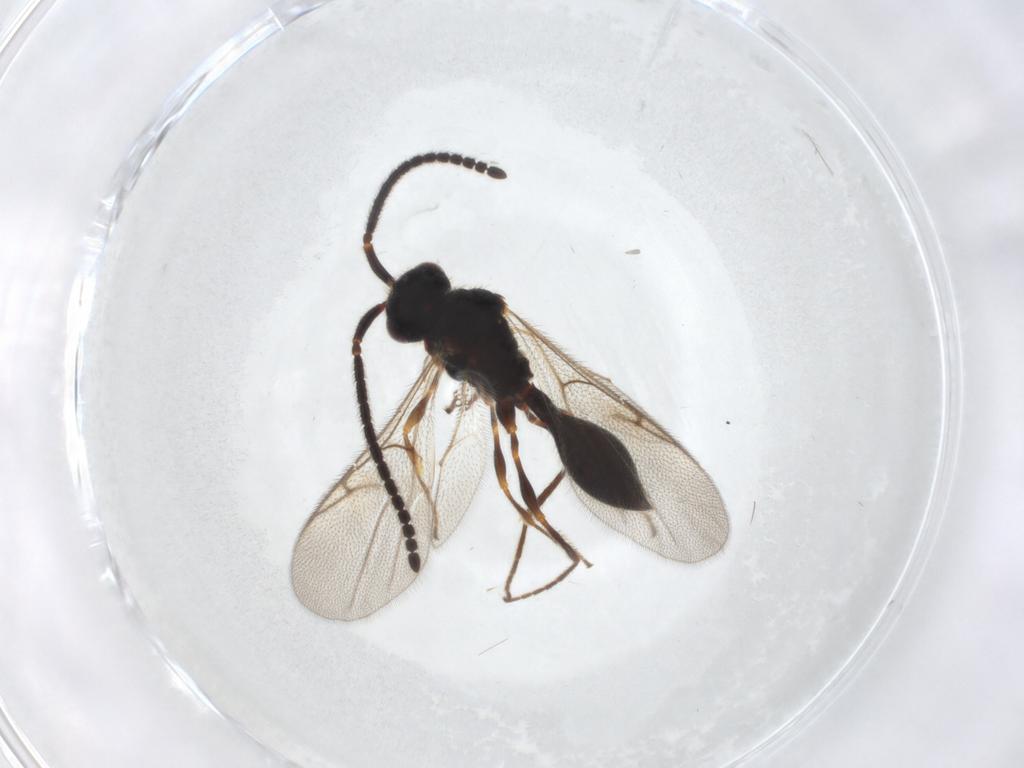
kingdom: Animalia
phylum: Arthropoda
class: Insecta
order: Hymenoptera
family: Diapriidae
